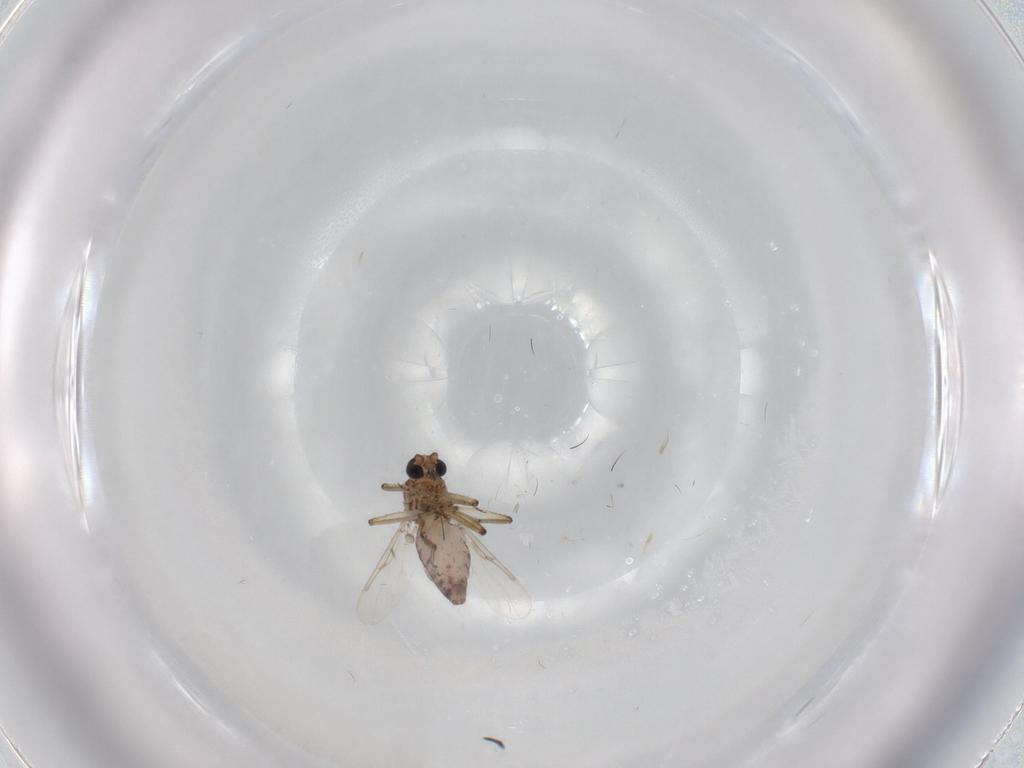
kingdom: Animalia
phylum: Arthropoda
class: Insecta
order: Diptera
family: Ceratopogonidae
